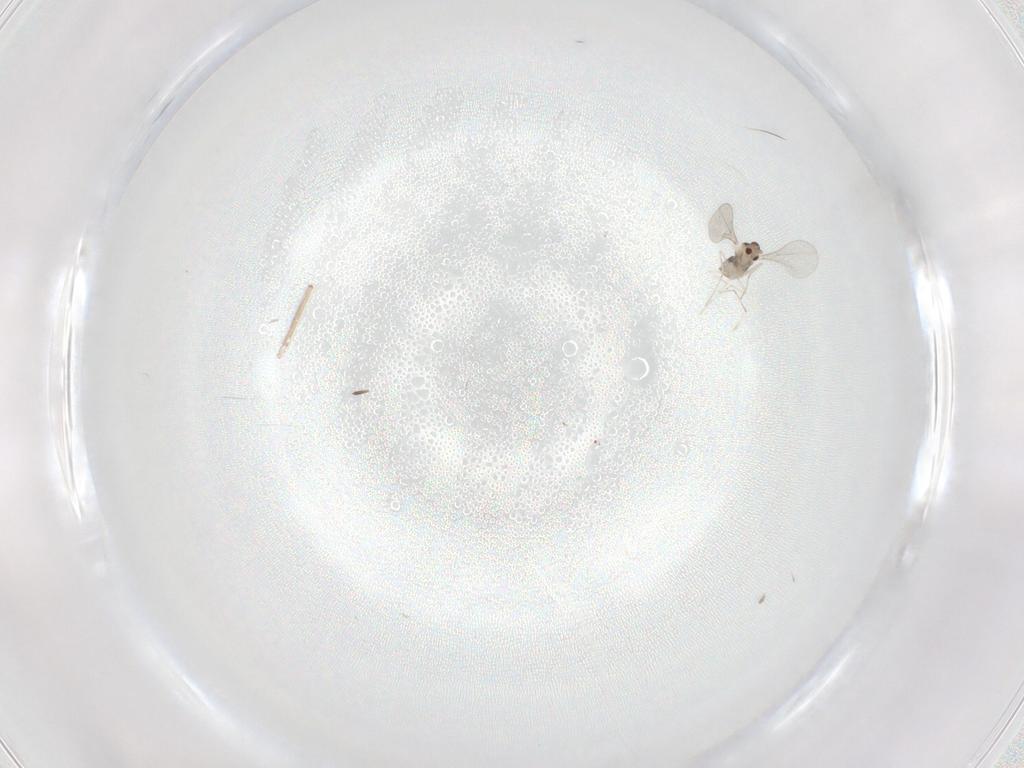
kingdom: Animalia
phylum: Arthropoda
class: Insecta
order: Diptera
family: Cecidomyiidae
